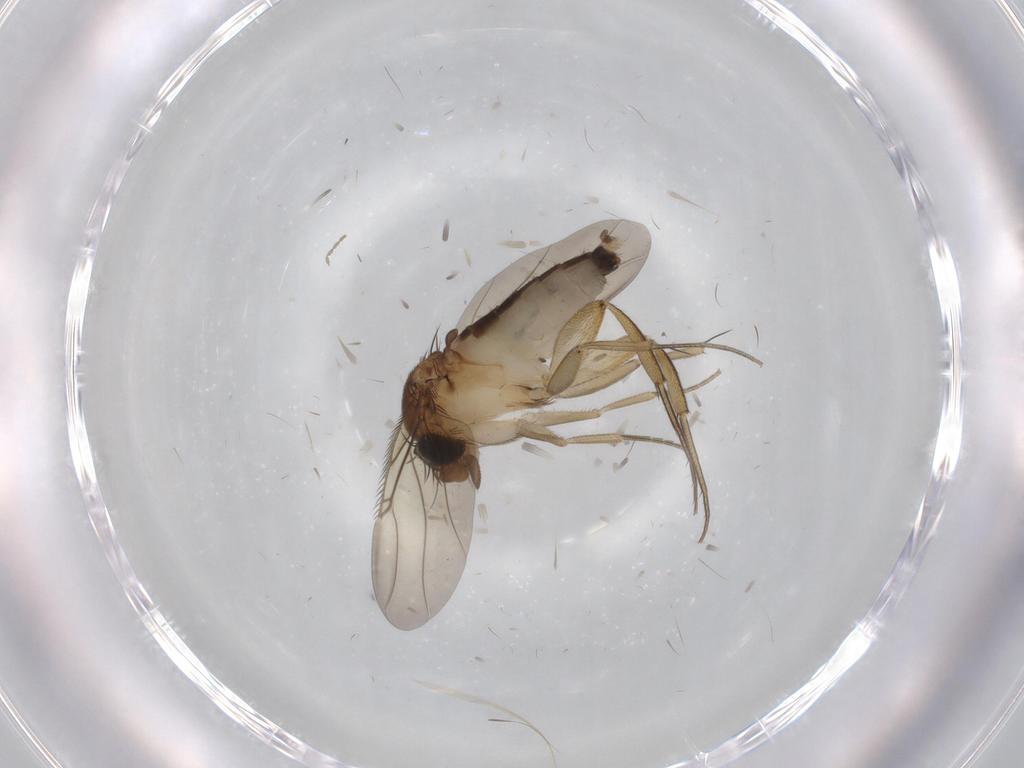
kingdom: Animalia
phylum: Arthropoda
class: Insecta
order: Diptera
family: Phoridae
